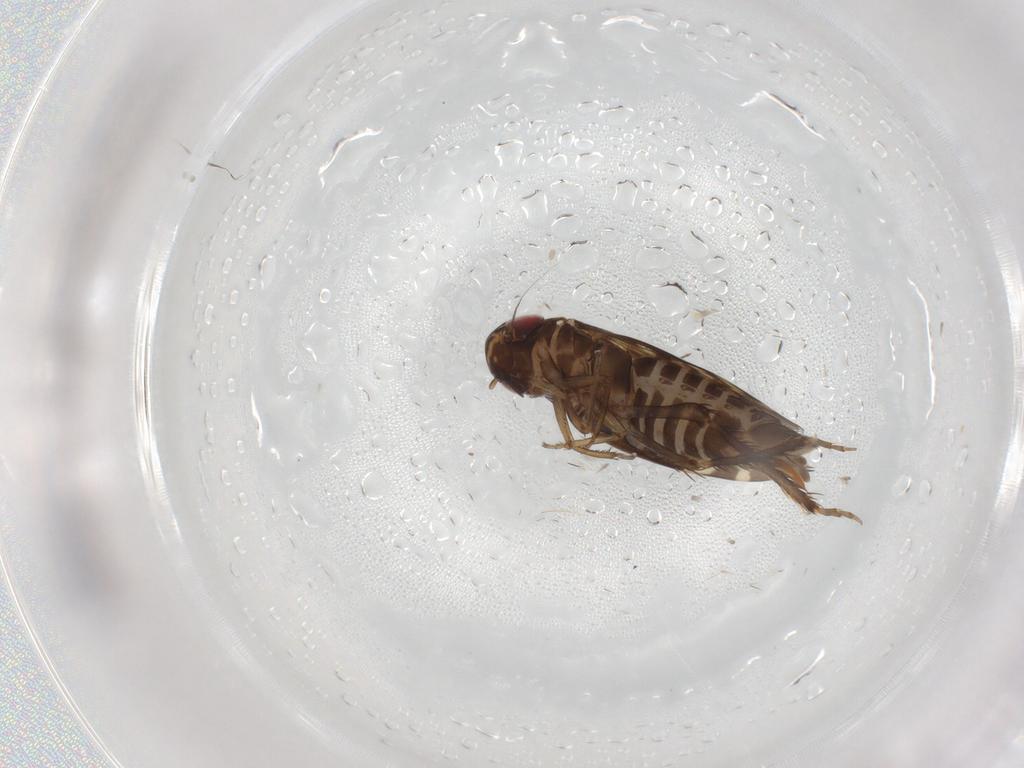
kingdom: Animalia
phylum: Arthropoda
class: Insecta
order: Hemiptera
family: Cicadellidae
